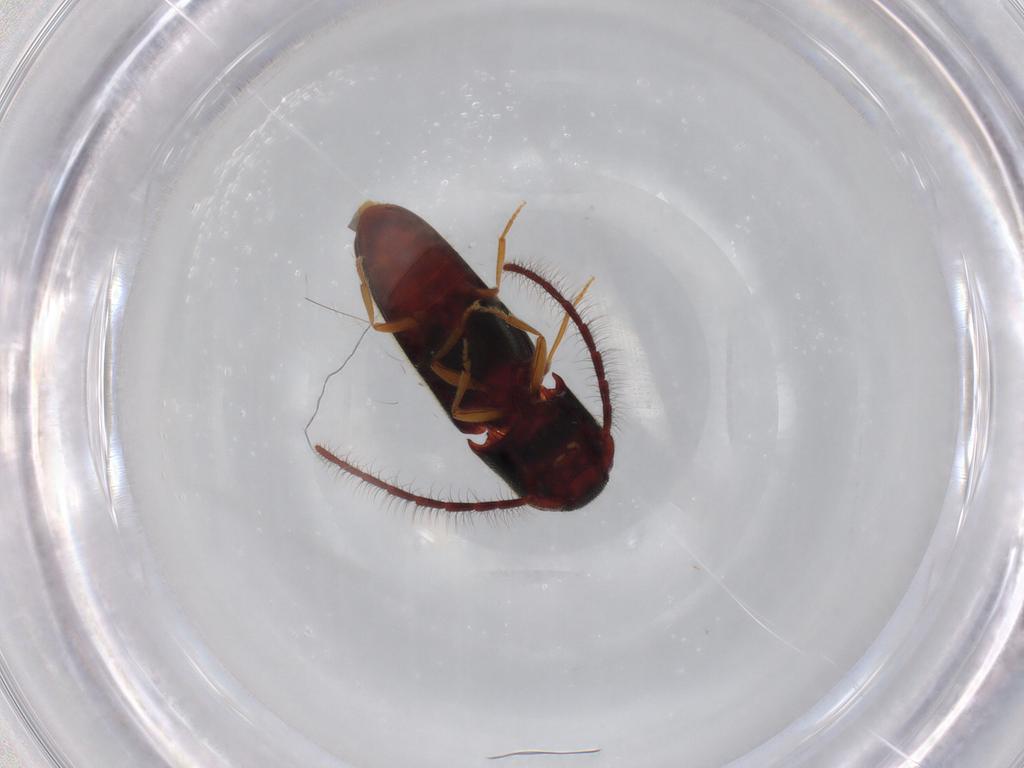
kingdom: Animalia
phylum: Arthropoda
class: Insecta
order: Coleoptera
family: Eucnemidae
